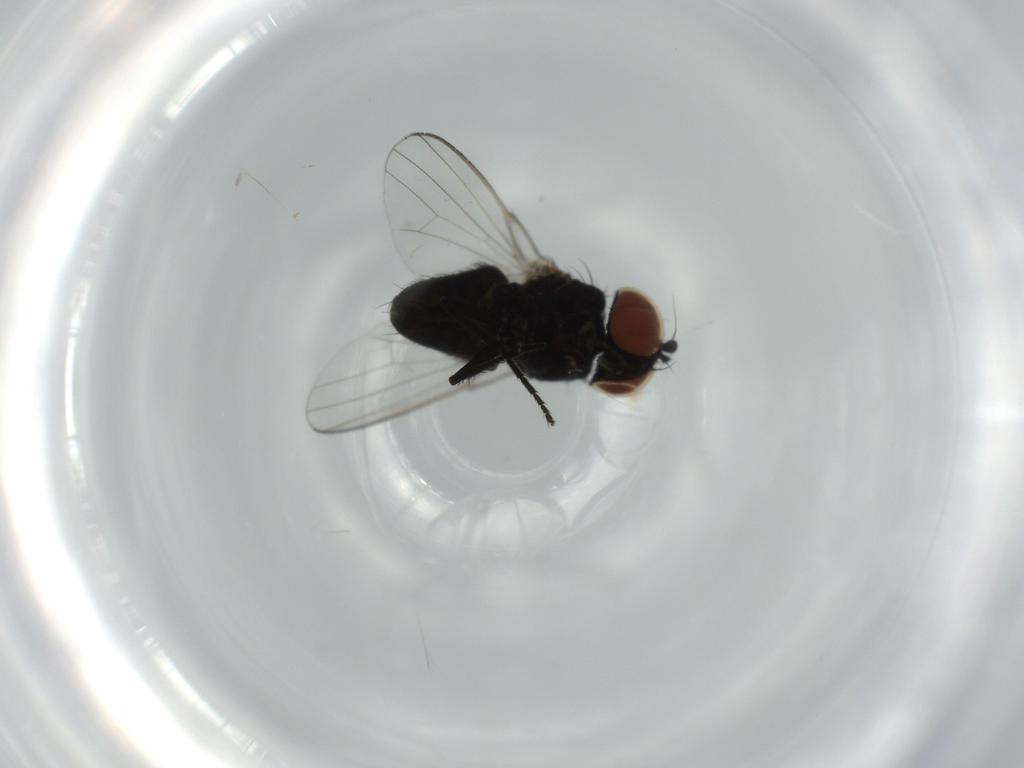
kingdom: Animalia
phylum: Arthropoda
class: Insecta
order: Diptera
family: Milichiidae
